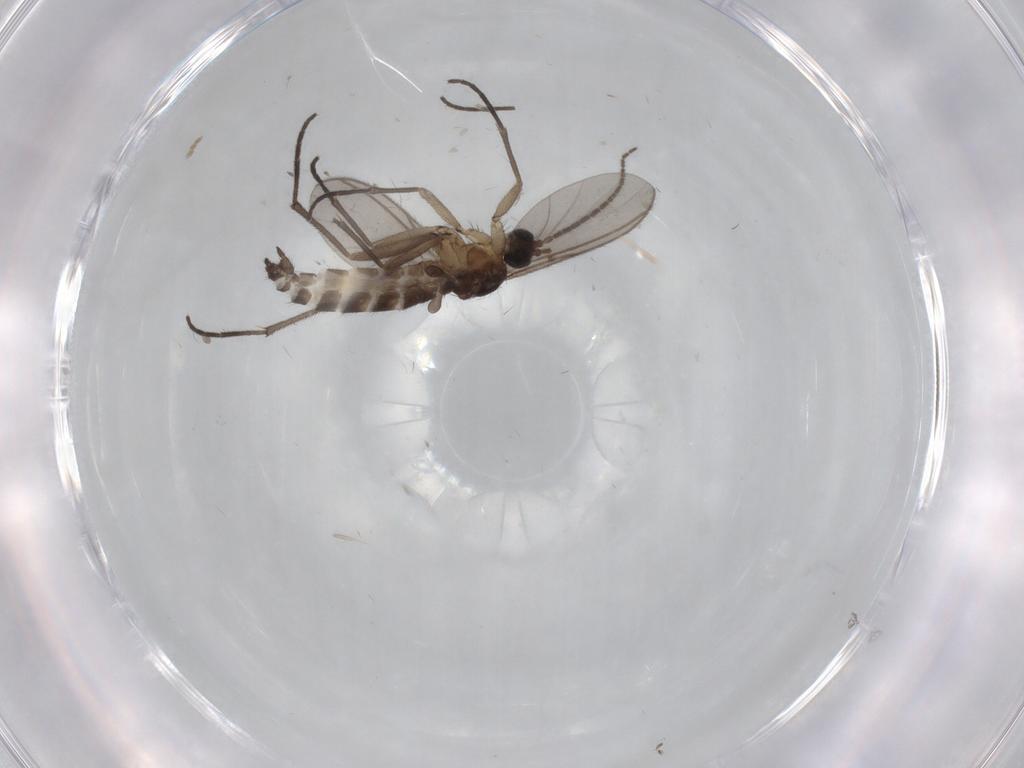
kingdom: Animalia
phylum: Arthropoda
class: Insecta
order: Diptera
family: Sciaridae
